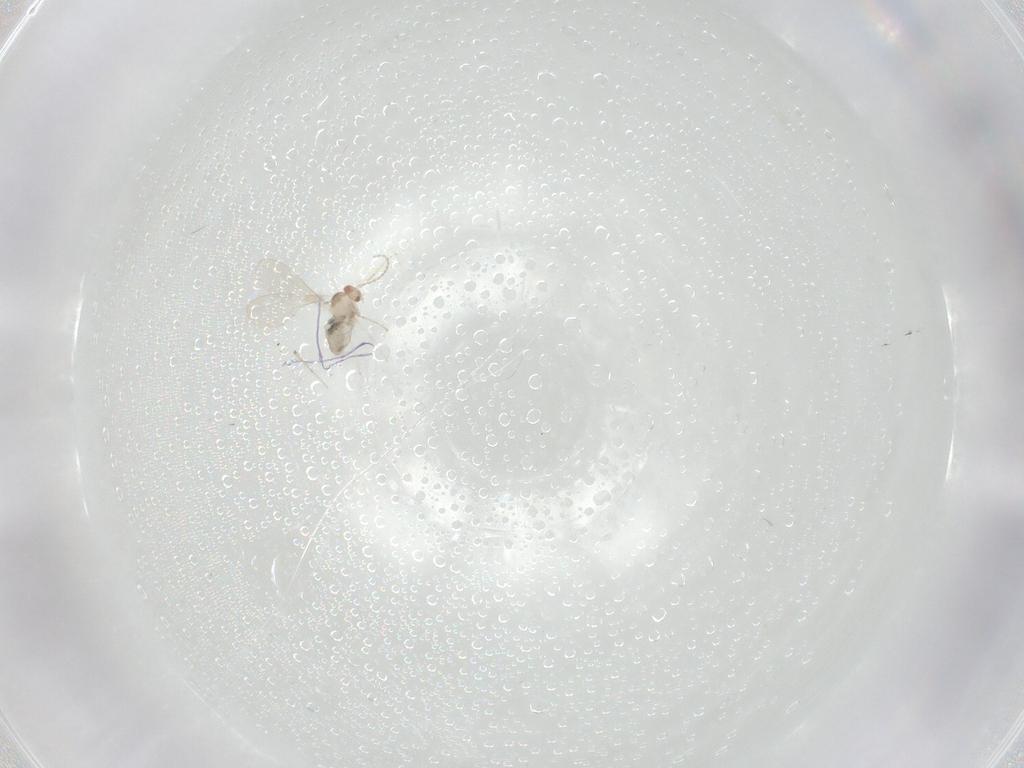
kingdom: Animalia
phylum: Arthropoda
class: Insecta
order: Hemiptera
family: Aleyrodidae
